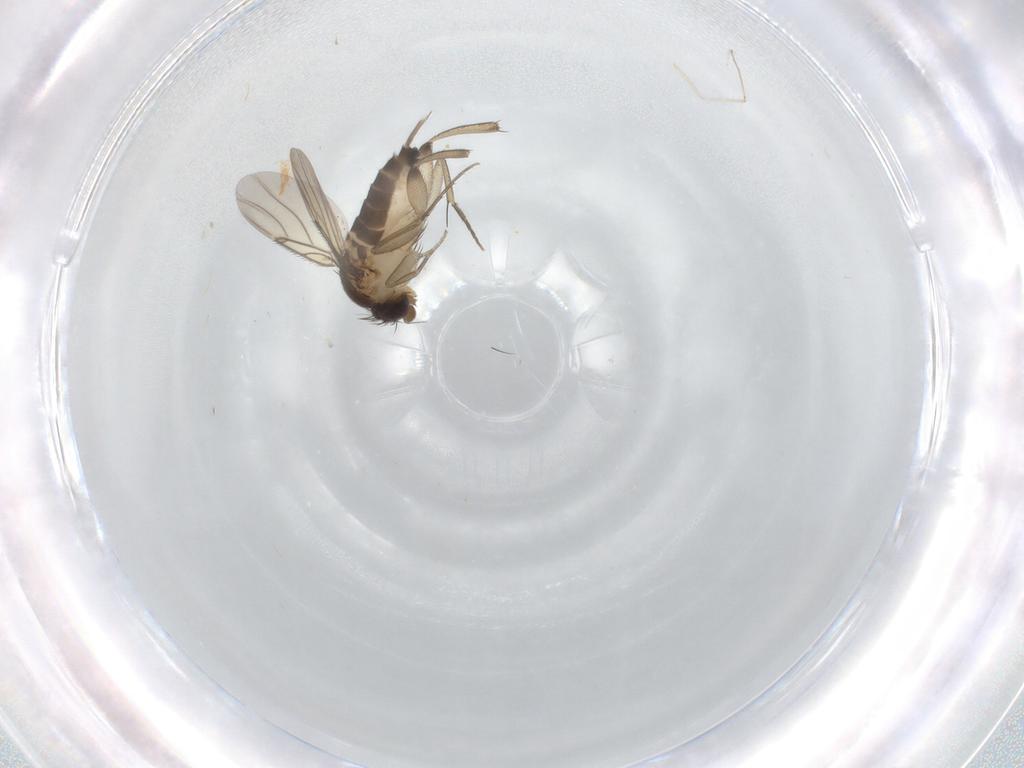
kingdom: Animalia
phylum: Arthropoda
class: Insecta
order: Diptera
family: Phoridae
